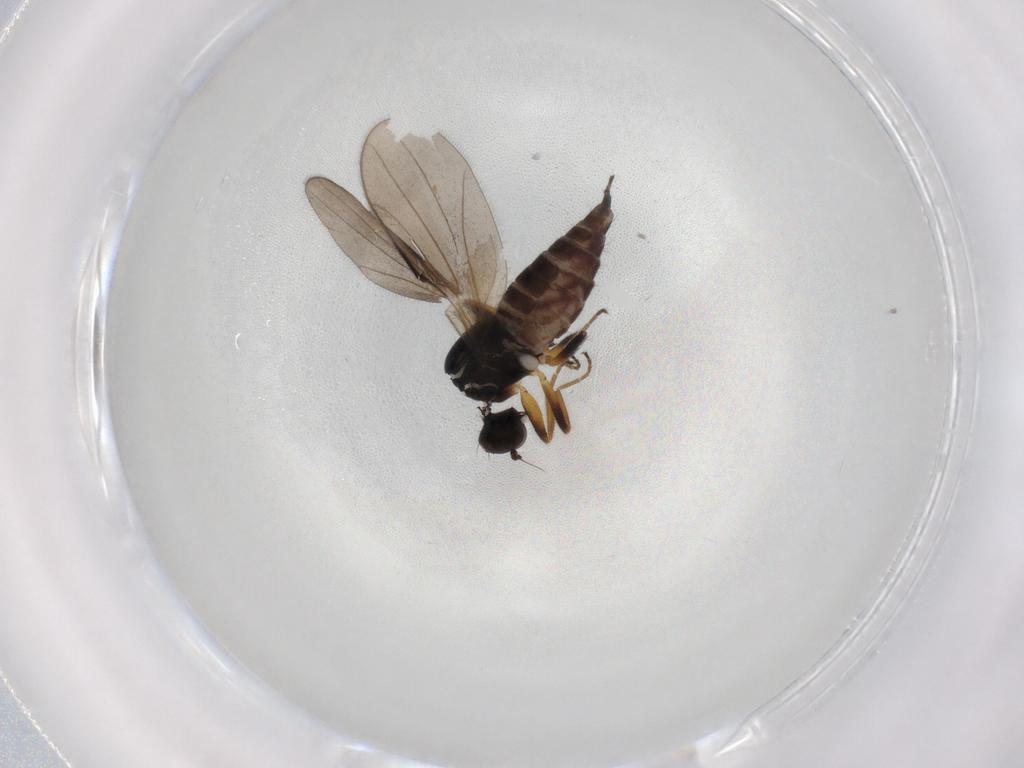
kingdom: Animalia
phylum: Arthropoda
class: Insecta
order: Diptera
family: Hybotidae
